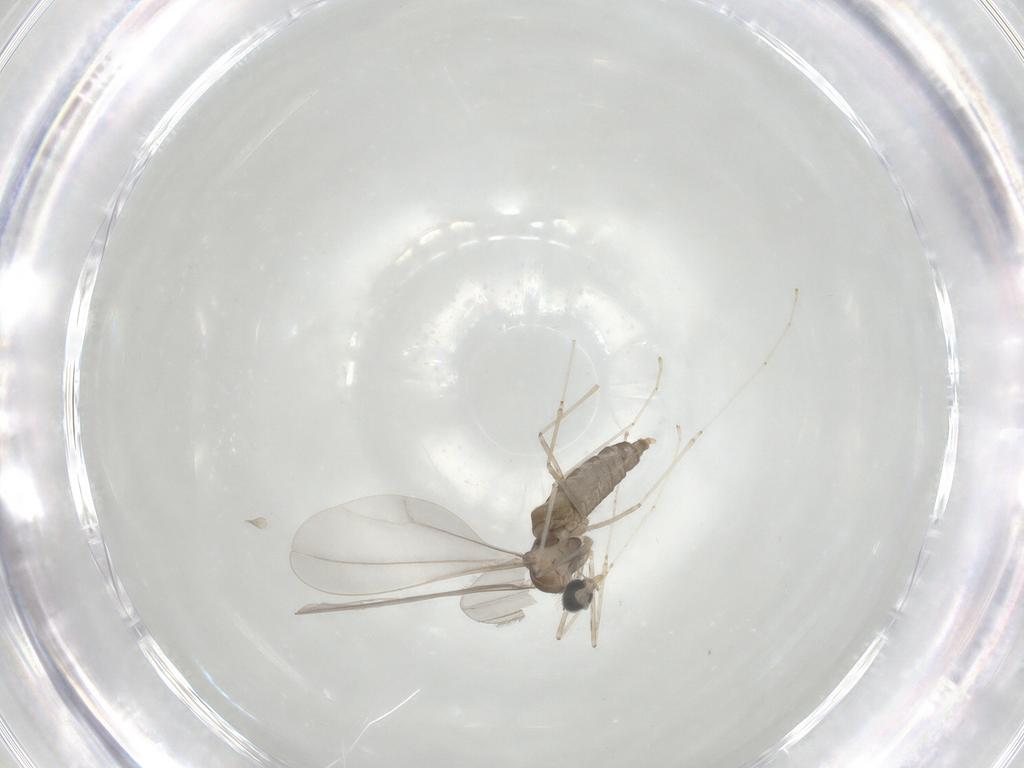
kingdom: Animalia
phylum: Arthropoda
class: Insecta
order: Diptera
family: Cecidomyiidae
